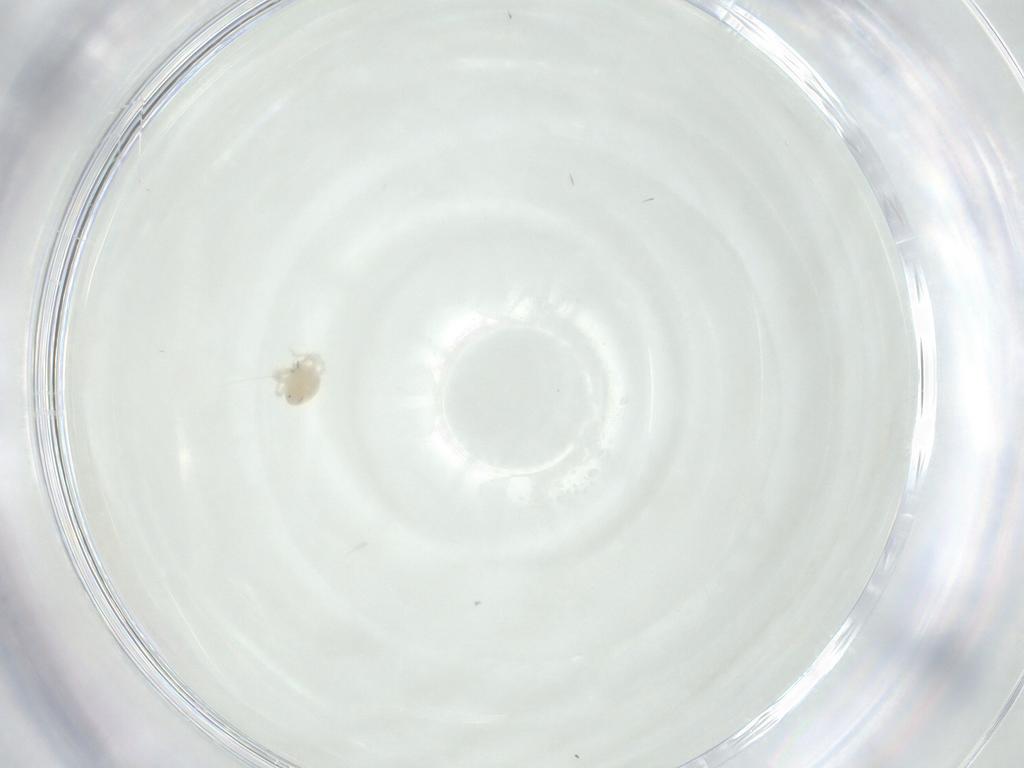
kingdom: Animalia
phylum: Arthropoda
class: Arachnida
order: Trombidiformes
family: Anystidae
